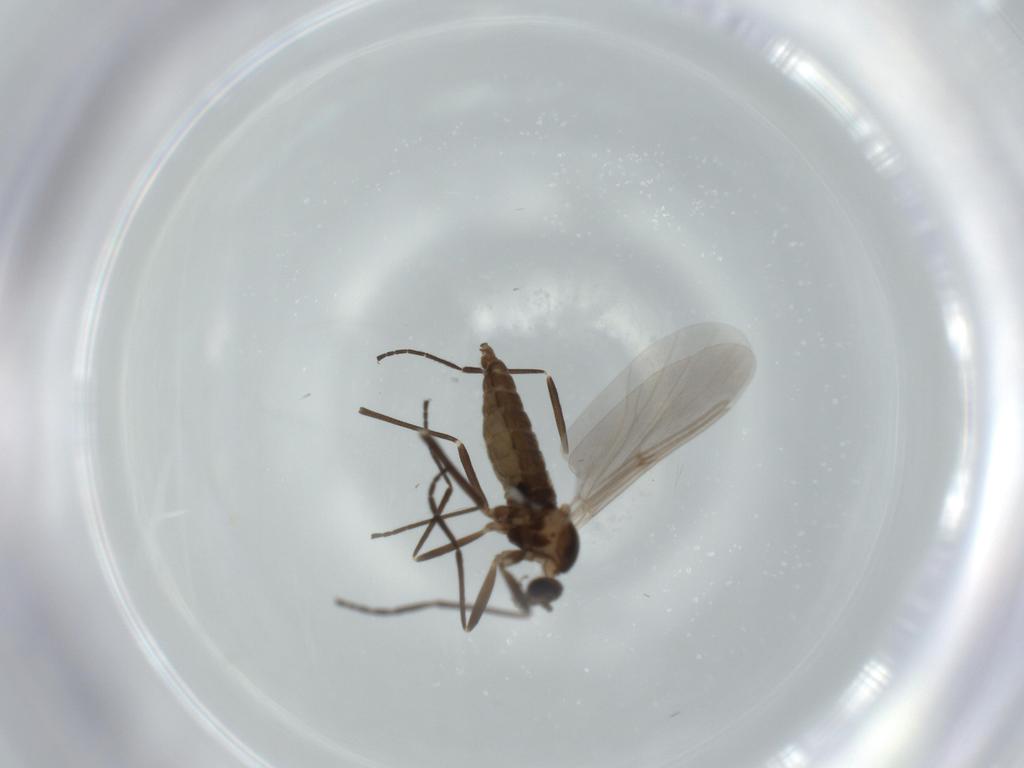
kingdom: Animalia
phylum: Arthropoda
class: Insecta
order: Diptera
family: Cecidomyiidae
